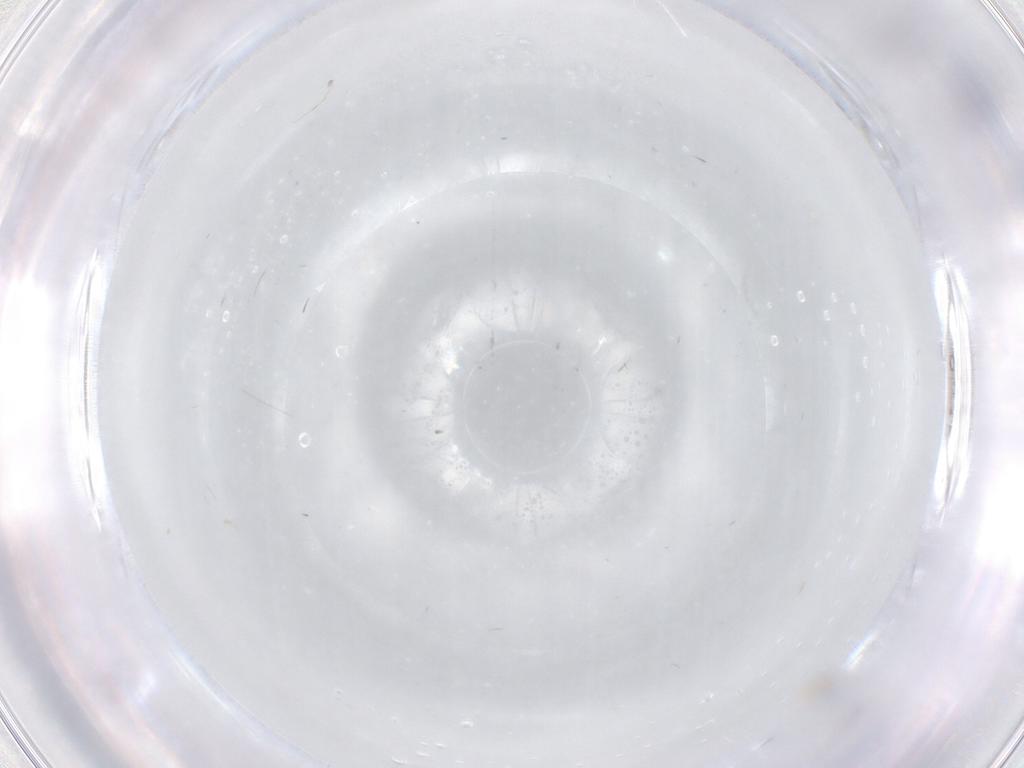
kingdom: Animalia
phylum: Arthropoda
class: Insecta
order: Diptera
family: Cecidomyiidae
